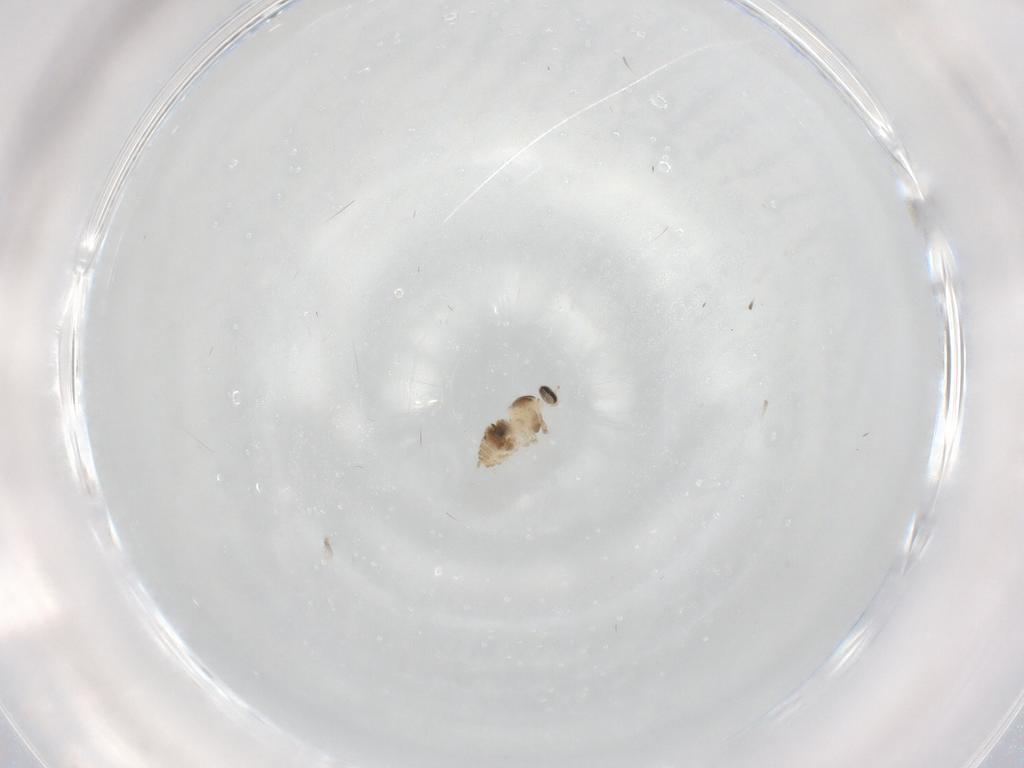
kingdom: Animalia
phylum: Arthropoda
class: Insecta
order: Diptera
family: Cecidomyiidae
